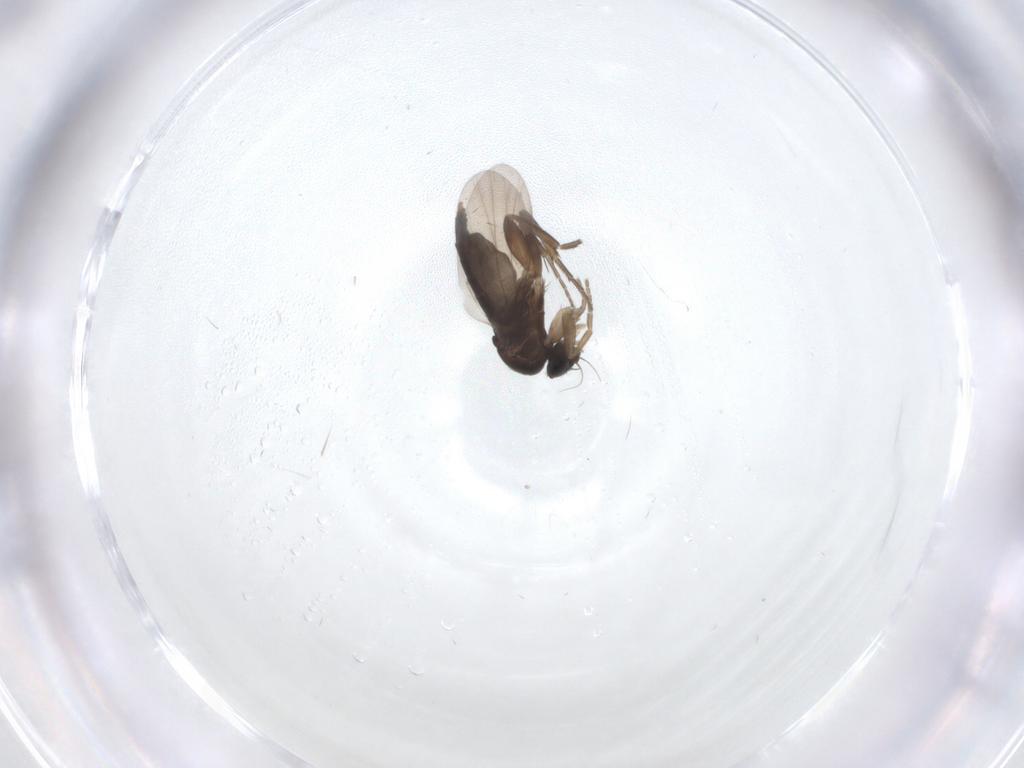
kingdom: Animalia
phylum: Arthropoda
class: Insecta
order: Diptera
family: Phoridae
